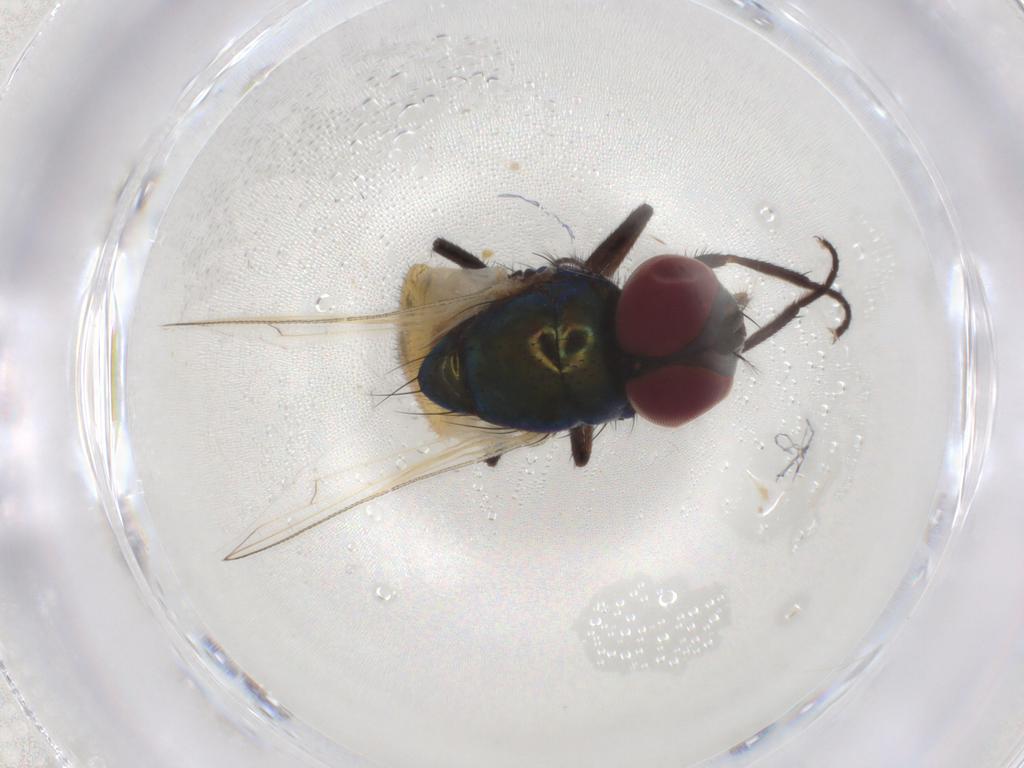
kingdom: Animalia
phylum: Arthropoda
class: Insecta
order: Diptera
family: Muscidae
